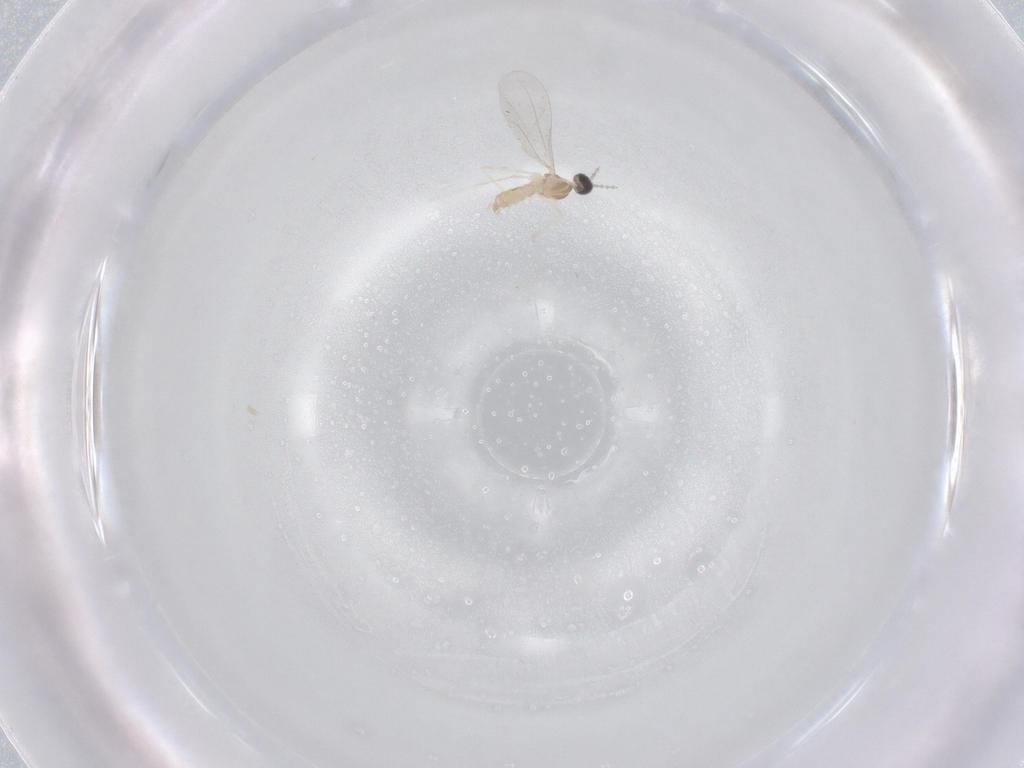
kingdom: Animalia
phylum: Arthropoda
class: Insecta
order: Diptera
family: Cecidomyiidae
